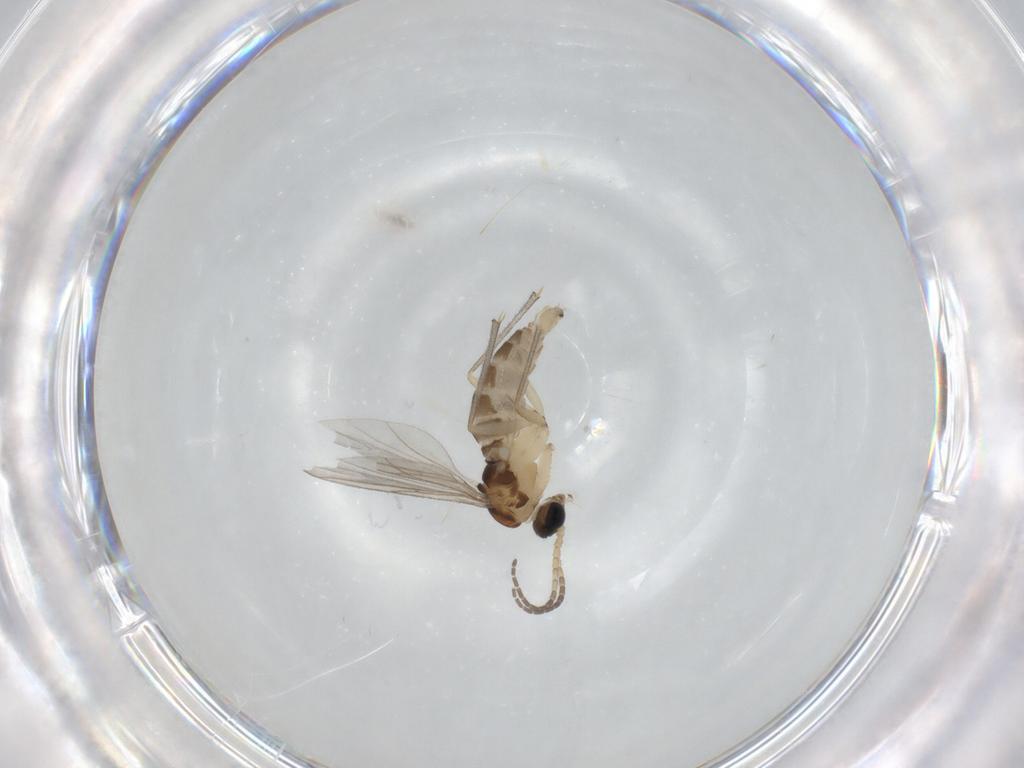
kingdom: Animalia
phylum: Arthropoda
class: Insecta
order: Diptera
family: Sciaridae
